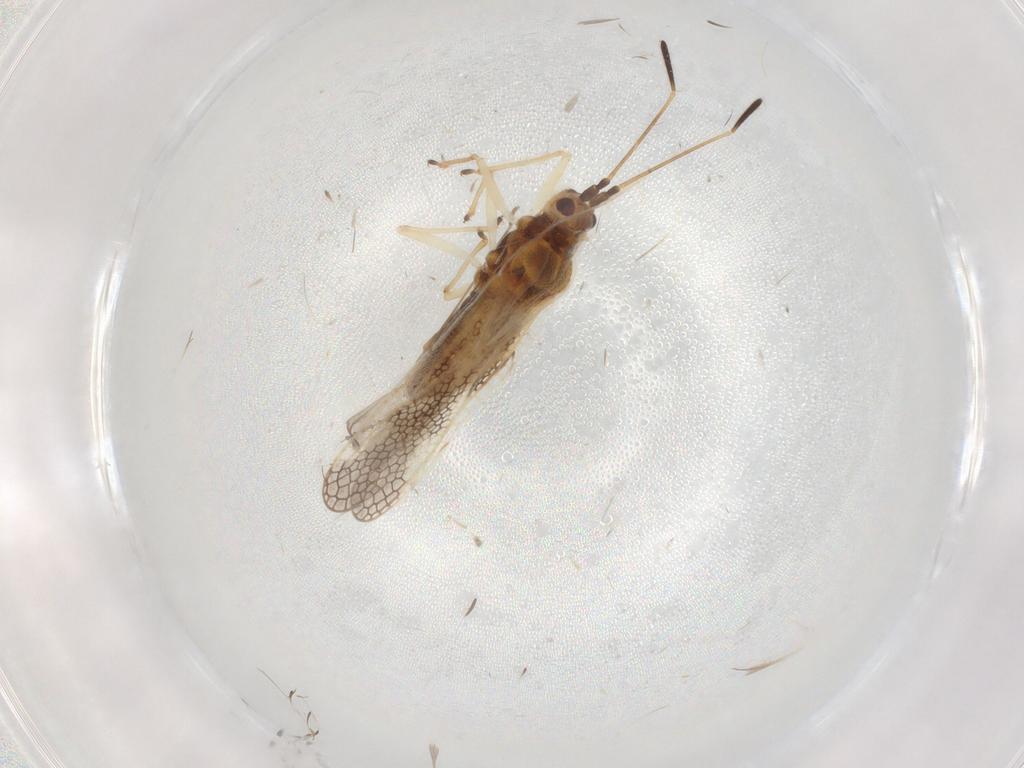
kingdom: Animalia
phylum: Arthropoda
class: Insecta
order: Hemiptera
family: Tingidae
